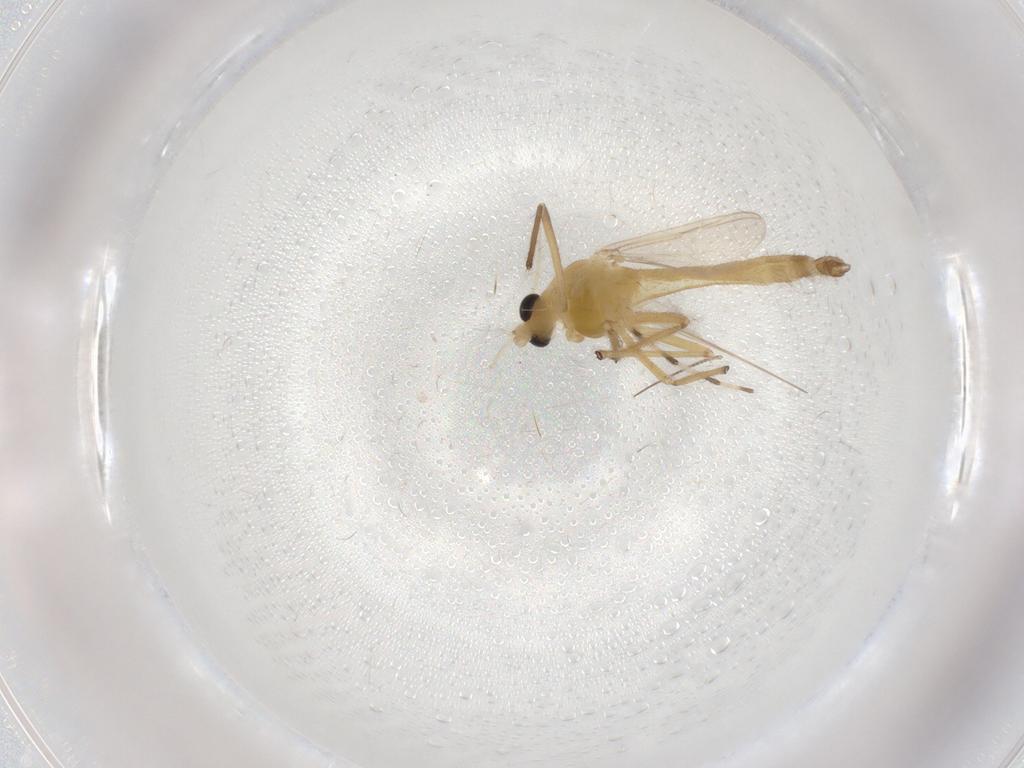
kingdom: Animalia
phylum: Arthropoda
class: Insecta
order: Diptera
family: Chironomidae
